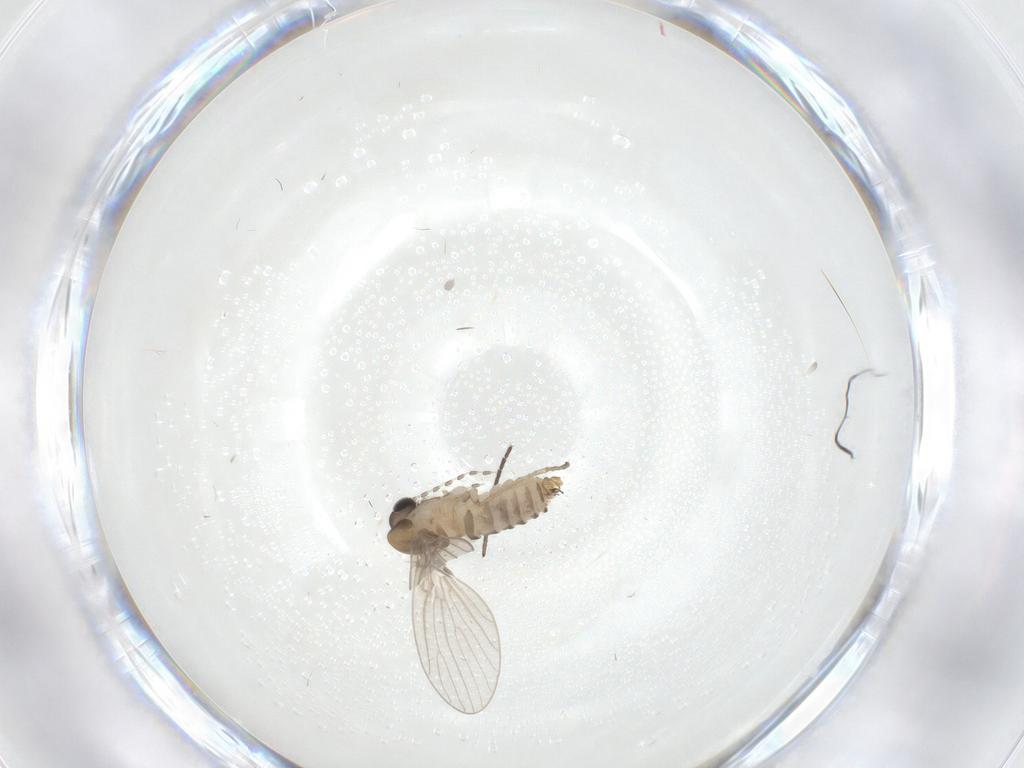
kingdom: Animalia
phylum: Arthropoda
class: Insecta
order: Diptera
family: Psychodidae
